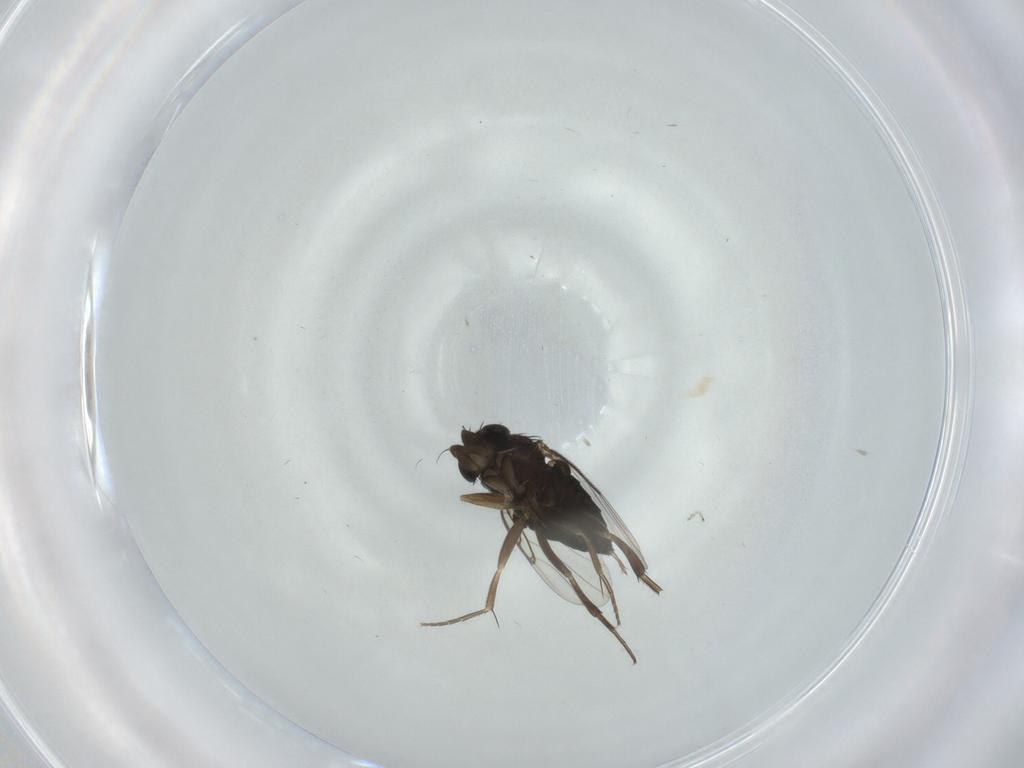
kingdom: Animalia
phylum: Arthropoda
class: Insecta
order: Diptera
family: Phoridae
